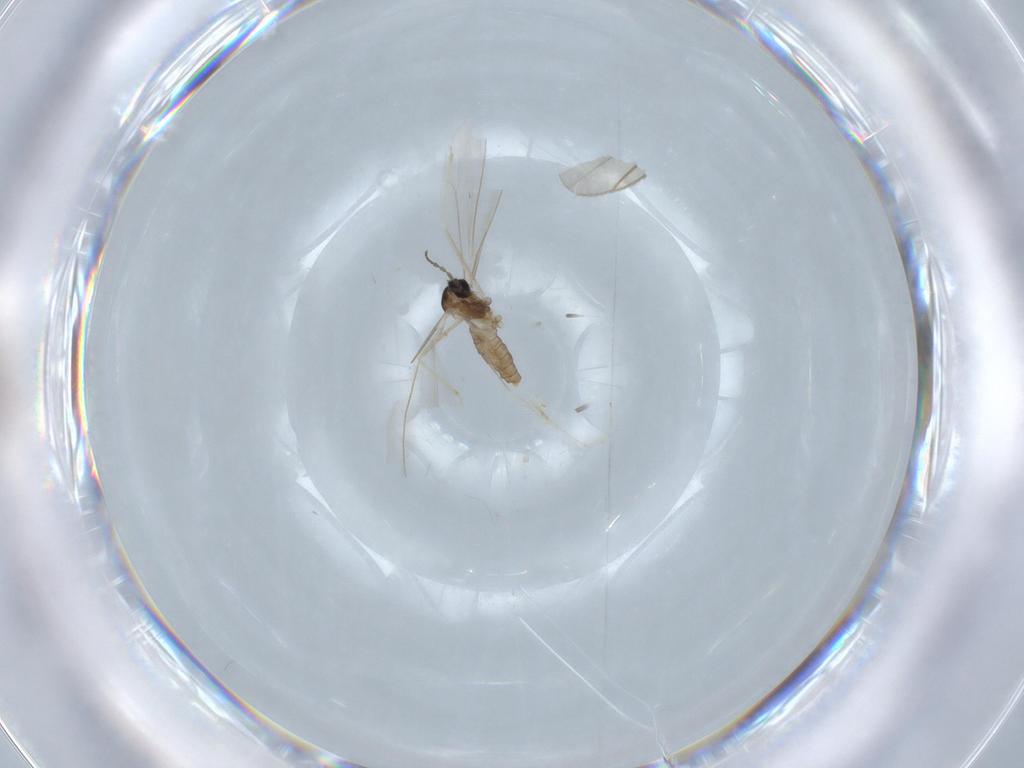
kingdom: Animalia
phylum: Arthropoda
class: Insecta
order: Diptera
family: Cecidomyiidae
